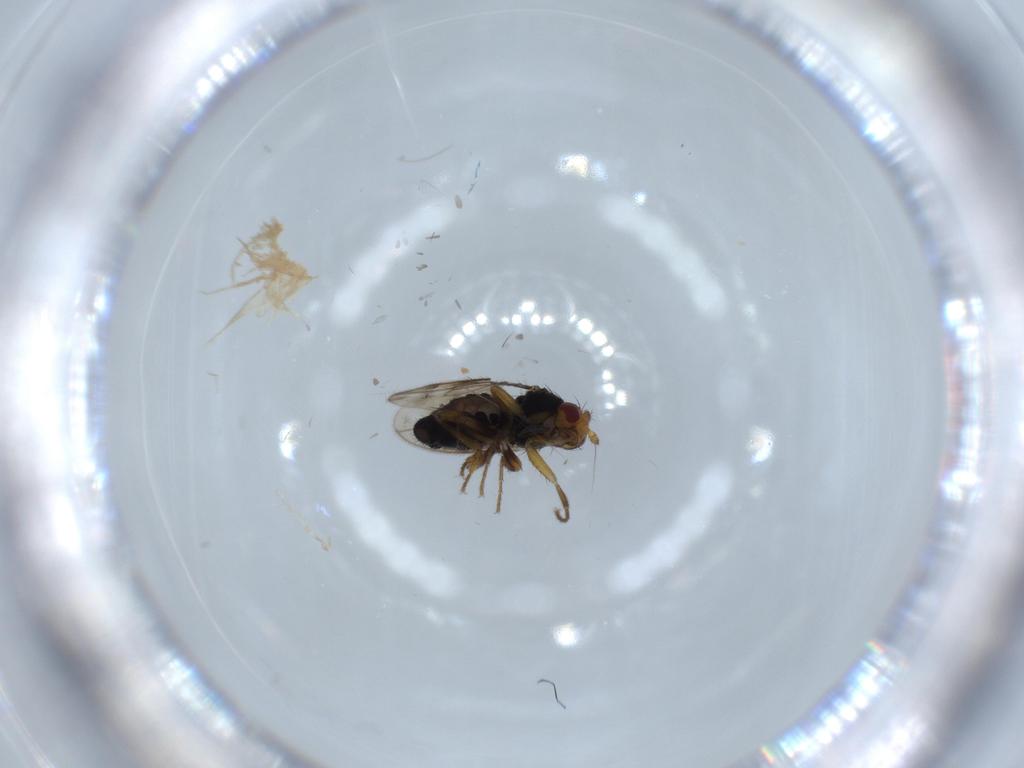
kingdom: Animalia
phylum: Arthropoda
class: Insecta
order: Diptera
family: Sphaeroceridae
